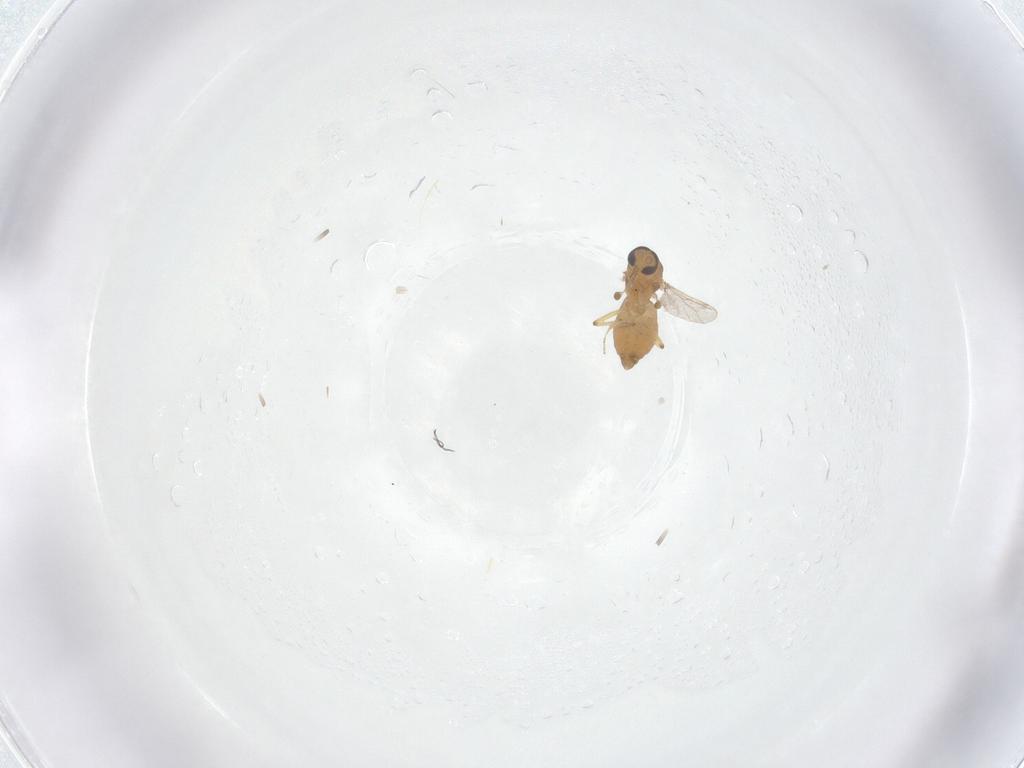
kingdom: Animalia
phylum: Arthropoda
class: Insecta
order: Diptera
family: Ceratopogonidae
